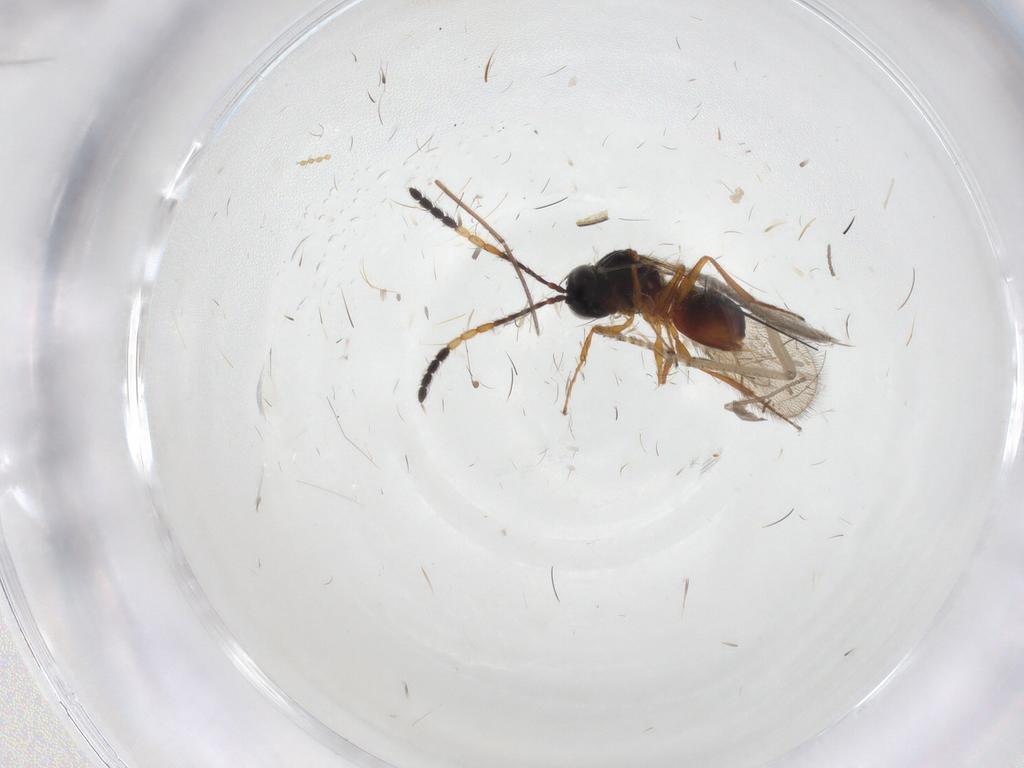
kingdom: Animalia
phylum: Arthropoda
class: Insecta
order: Hymenoptera
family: Figitidae
